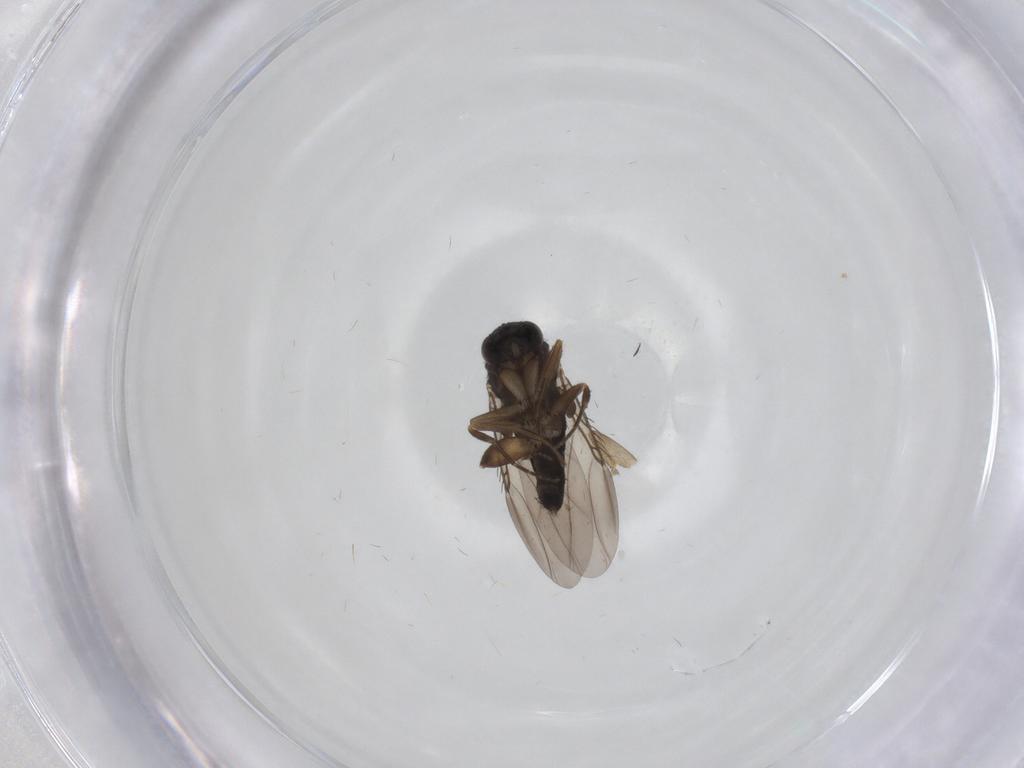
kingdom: Animalia
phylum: Arthropoda
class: Insecta
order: Diptera
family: Phoridae
